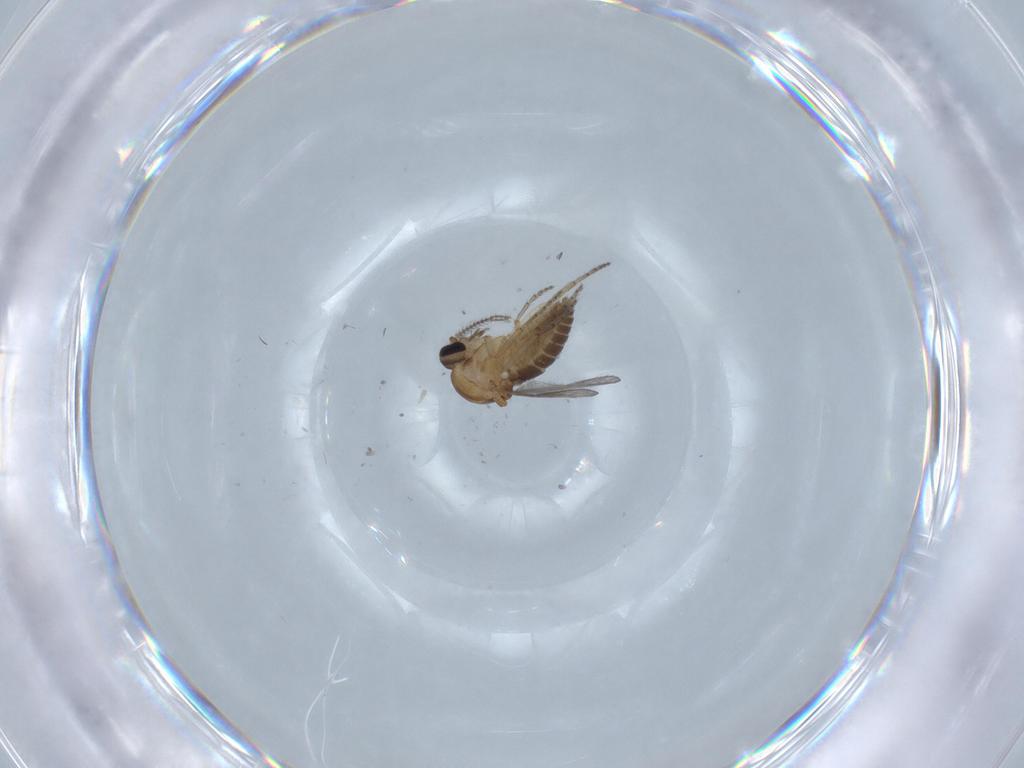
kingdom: Animalia
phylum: Arthropoda
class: Insecta
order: Diptera
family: Ceratopogonidae
